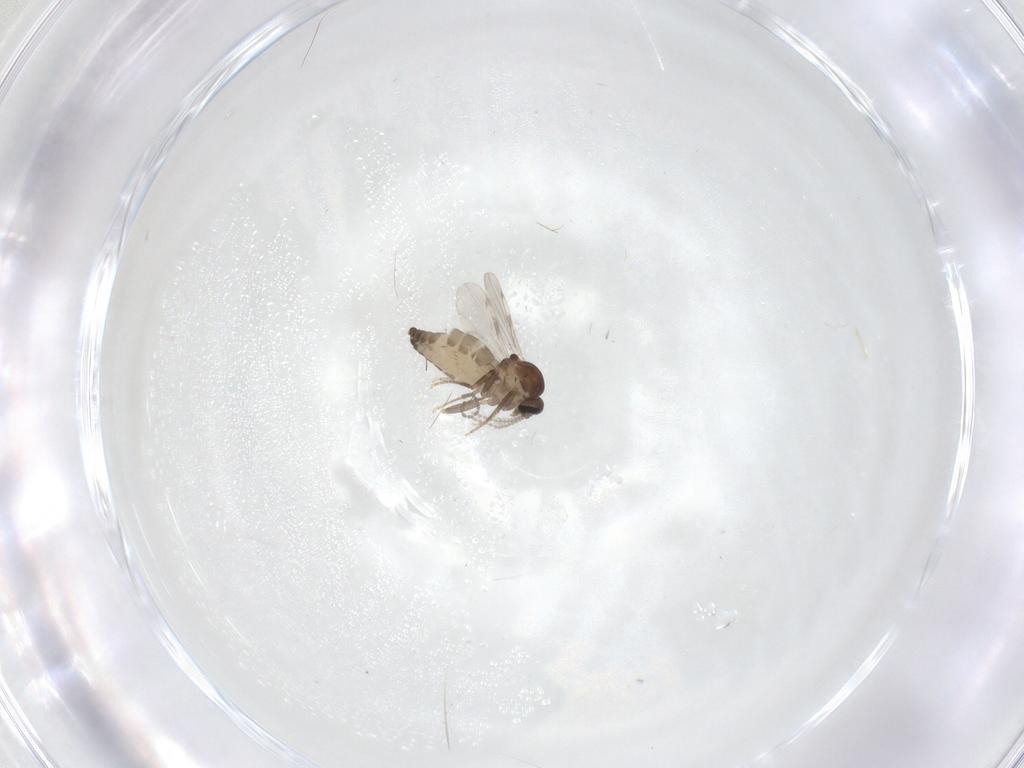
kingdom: Animalia
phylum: Arthropoda
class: Insecta
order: Diptera
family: Ceratopogonidae
